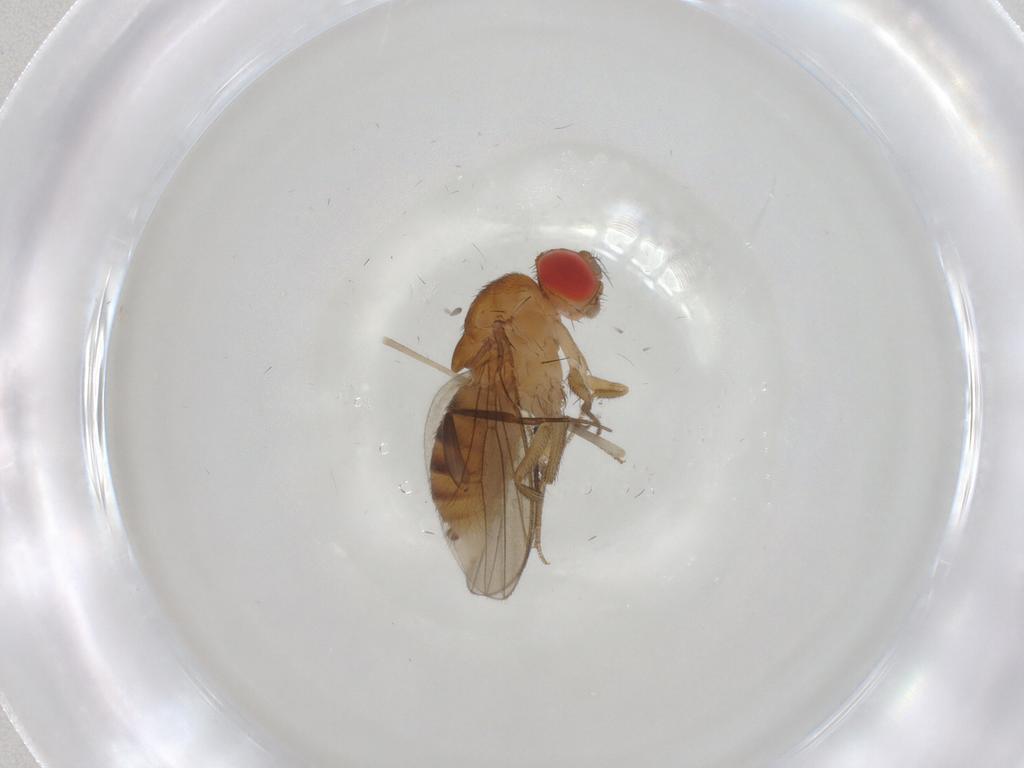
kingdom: Animalia
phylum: Arthropoda
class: Insecta
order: Diptera
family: Drosophilidae
